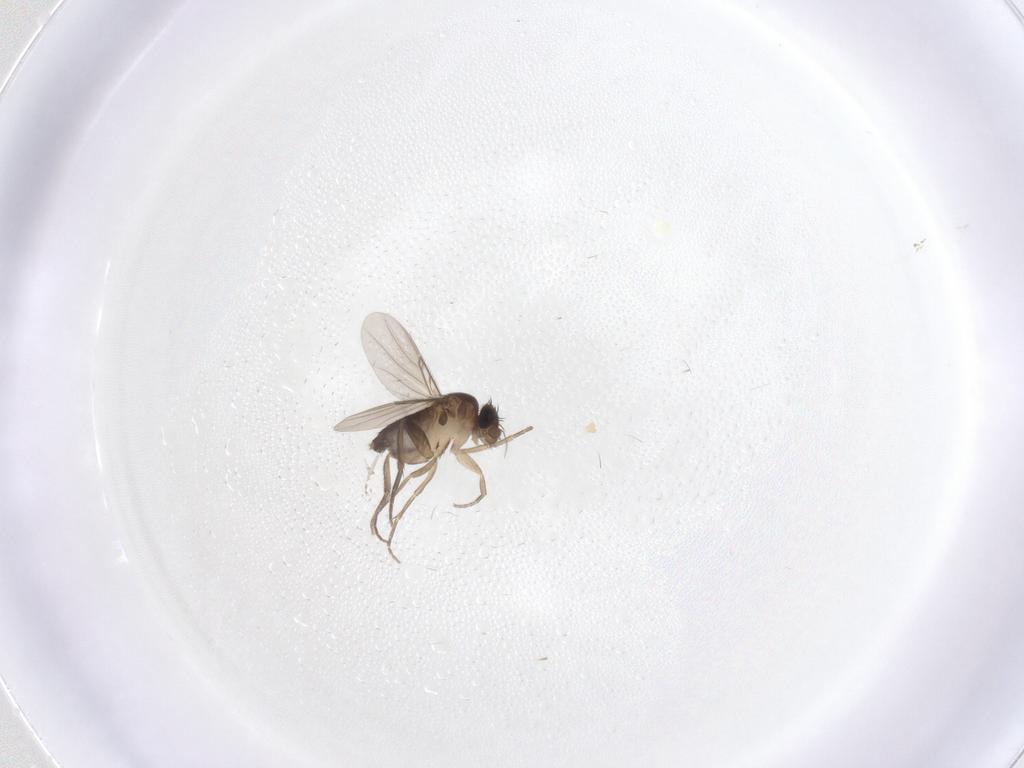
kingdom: Animalia
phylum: Arthropoda
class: Insecta
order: Diptera
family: Phoridae
